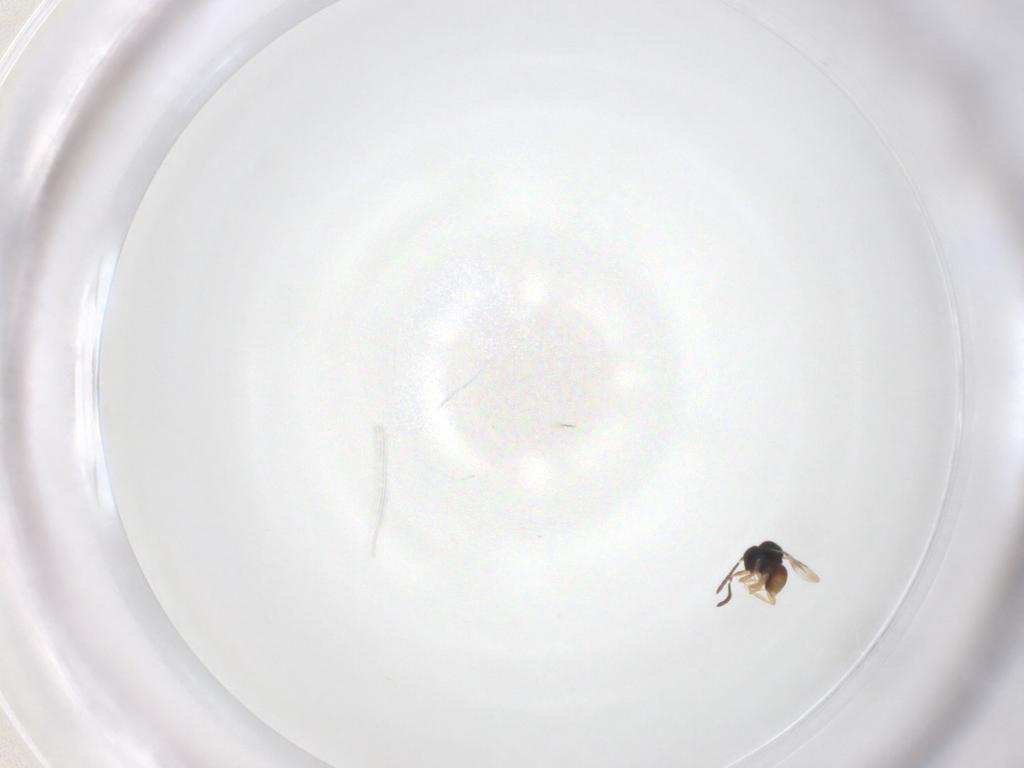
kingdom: Animalia
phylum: Arthropoda
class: Insecta
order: Hymenoptera
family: Ceraphronidae
